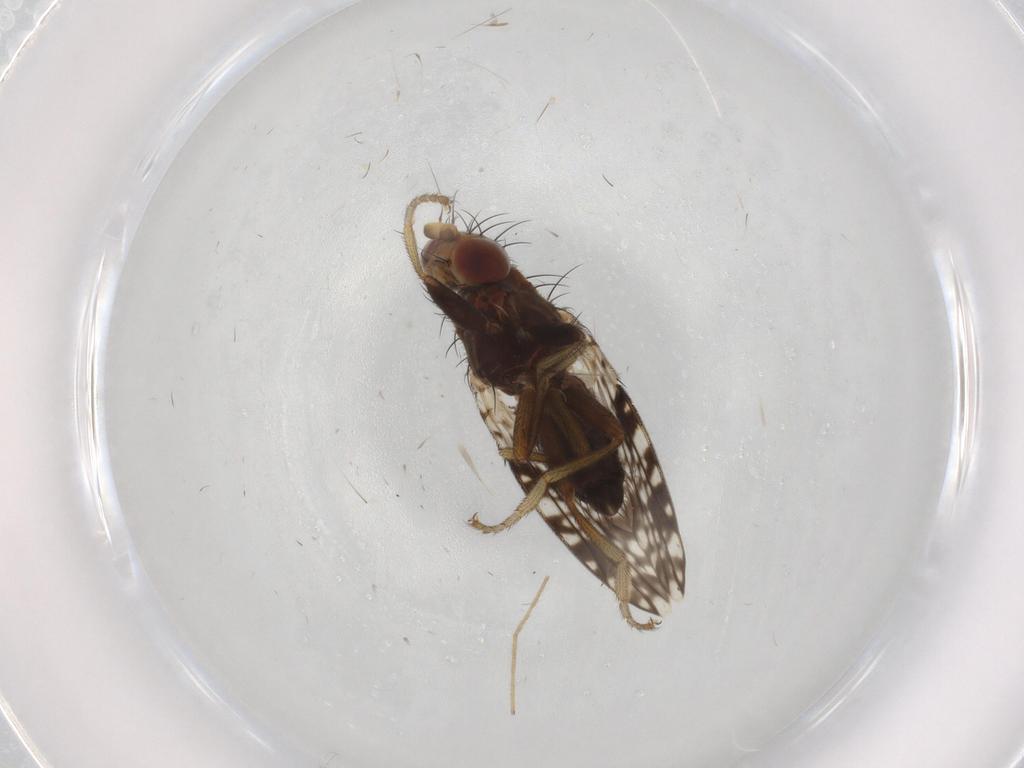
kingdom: Animalia
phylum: Arthropoda
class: Insecta
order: Diptera
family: Tephritidae
